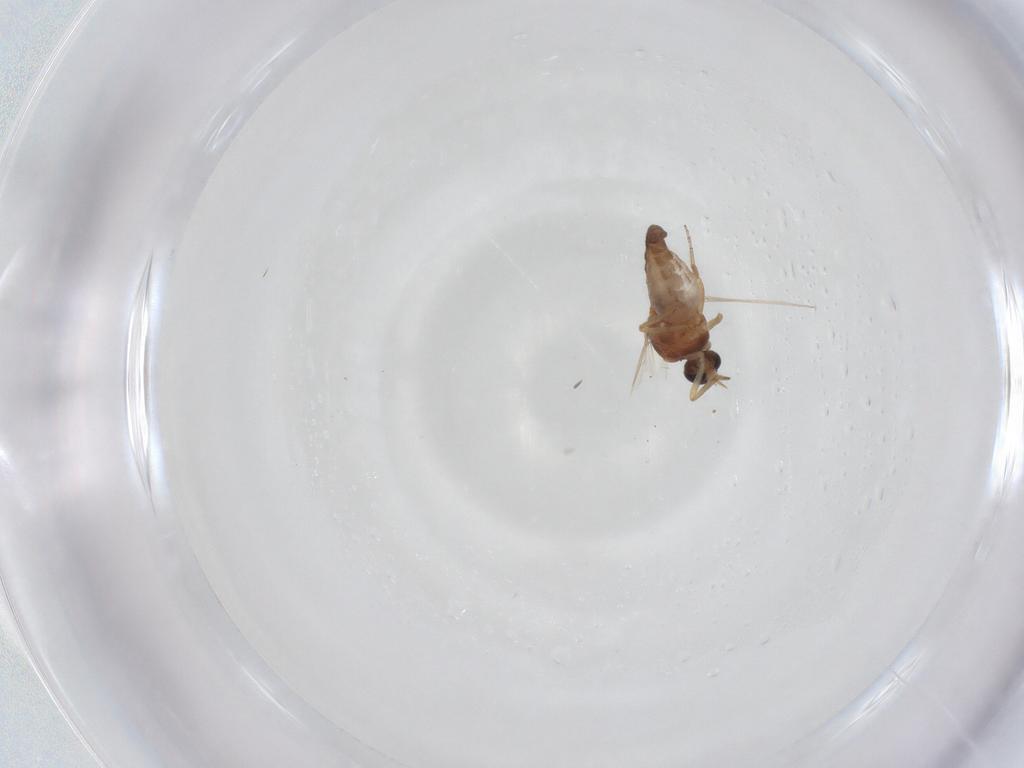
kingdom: Animalia
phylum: Arthropoda
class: Insecta
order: Diptera
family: Ceratopogonidae
